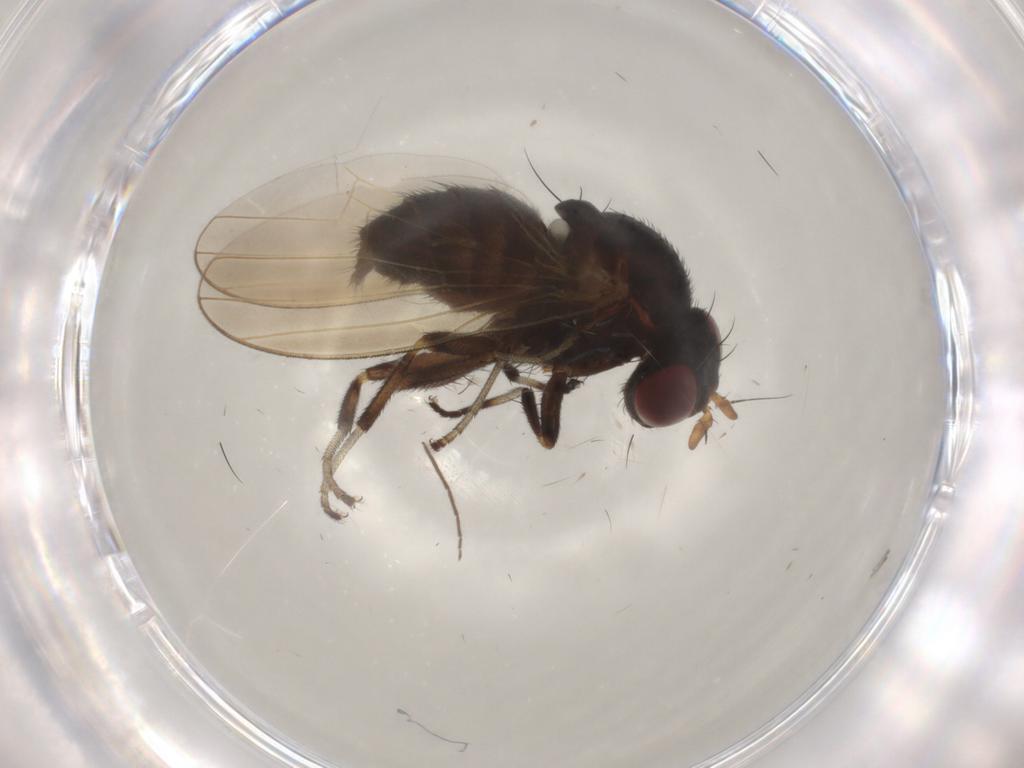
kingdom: Animalia
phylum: Arthropoda
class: Insecta
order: Diptera
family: Chironomidae
